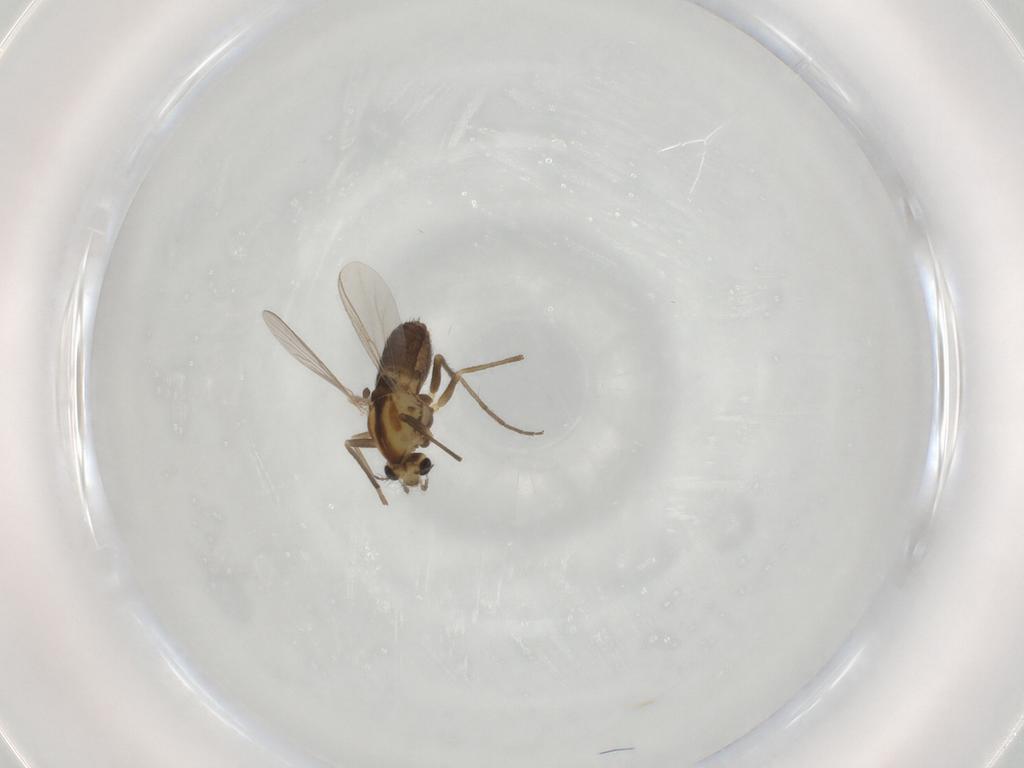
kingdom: Animalia
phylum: Arthropoda
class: Insecta
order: Diptera
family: Chironomidae
